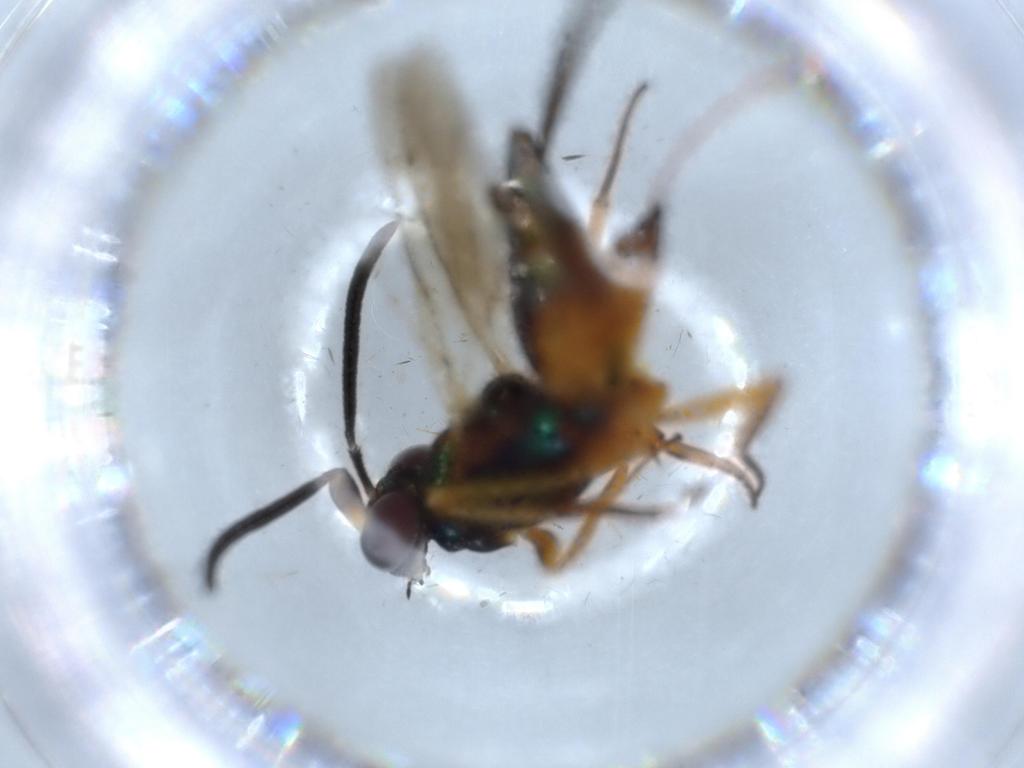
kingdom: Animalia
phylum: Arthropoda
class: Insecta
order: Hymenoptera
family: Eupelmidae
